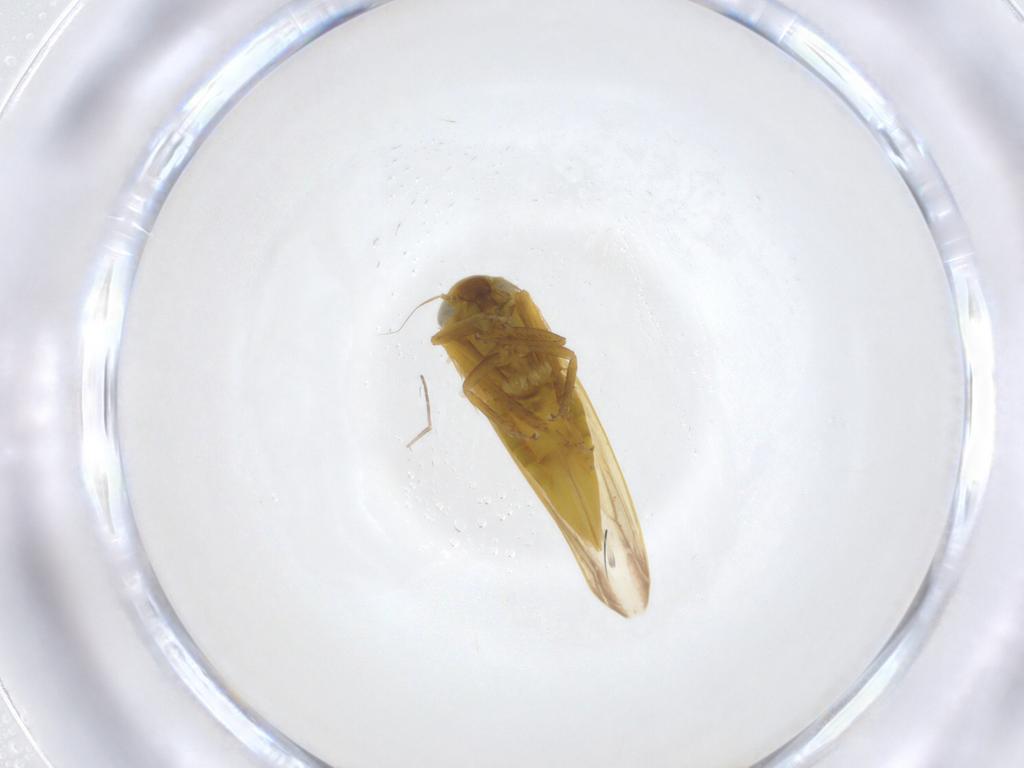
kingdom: Animalia
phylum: Arthropoda
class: Insecta
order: Hemiptera
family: Cicadellidae
